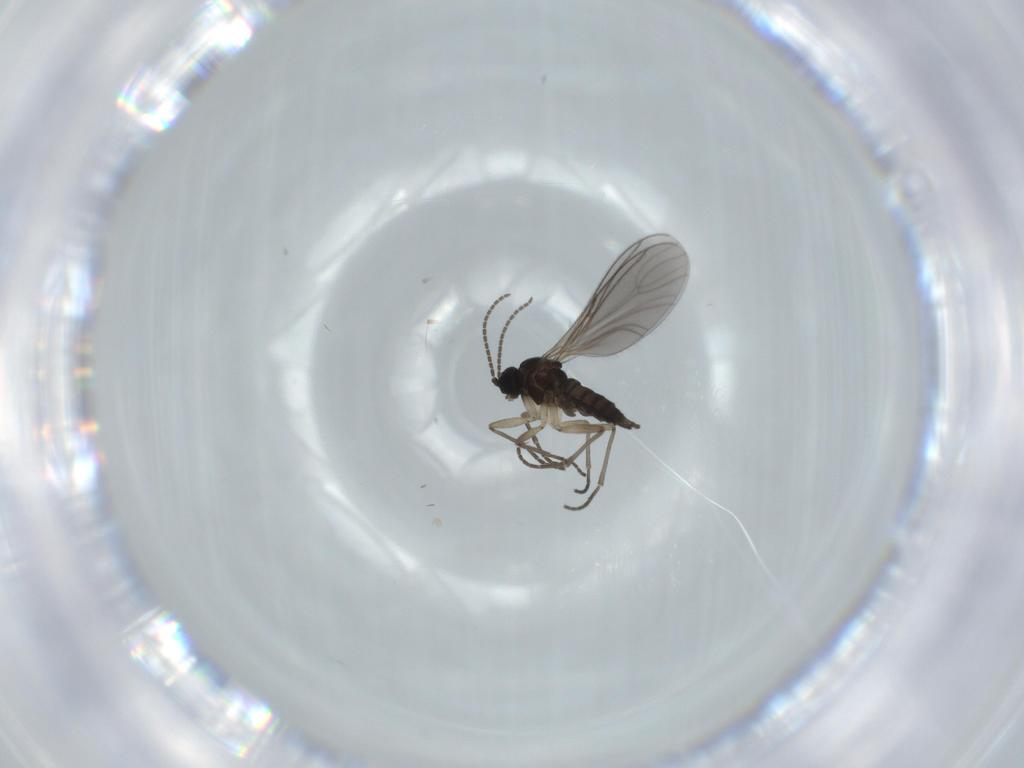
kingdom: Animalia
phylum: Arthropoda
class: Insecta
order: Diptera
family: Sciaridae
